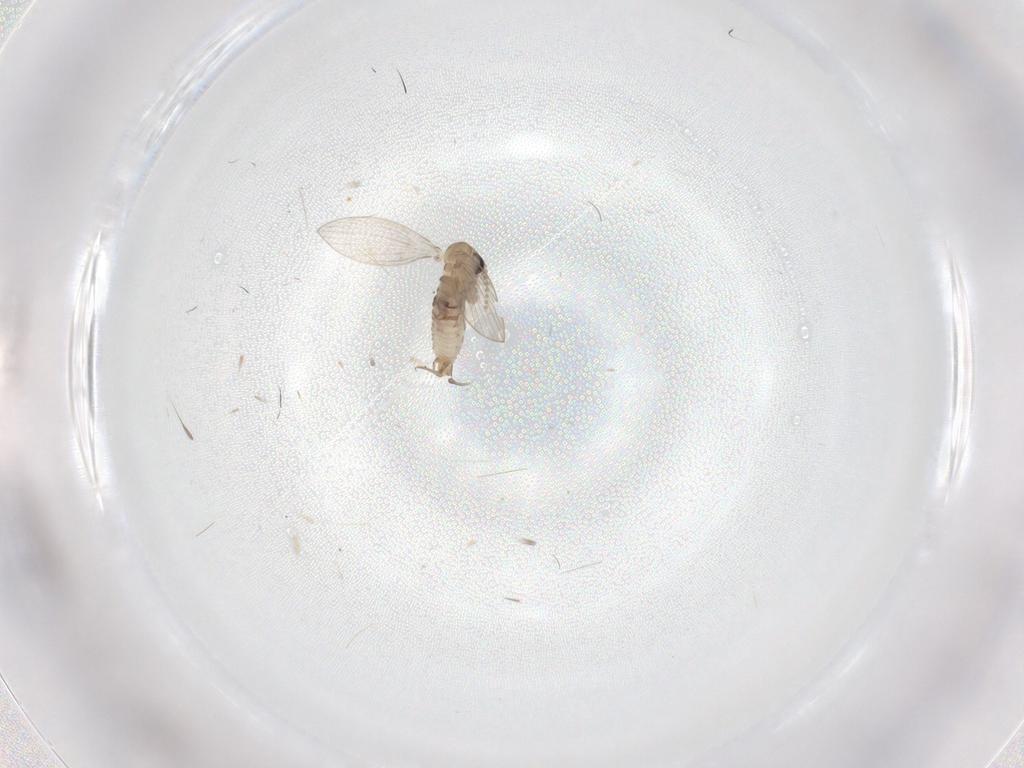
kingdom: Animalia
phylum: Arthropoda
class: Insecta
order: Diptera
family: Psychodidae
